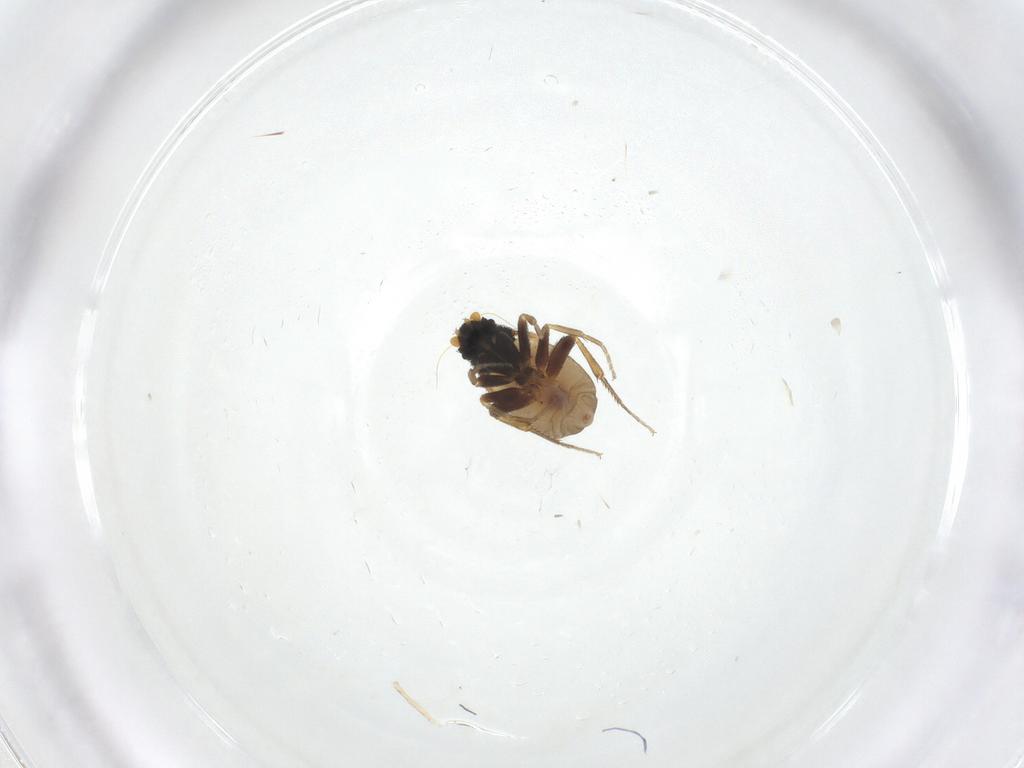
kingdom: Animalia
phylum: Arthropoda
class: Insecta
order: Diptera
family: Phoridae
